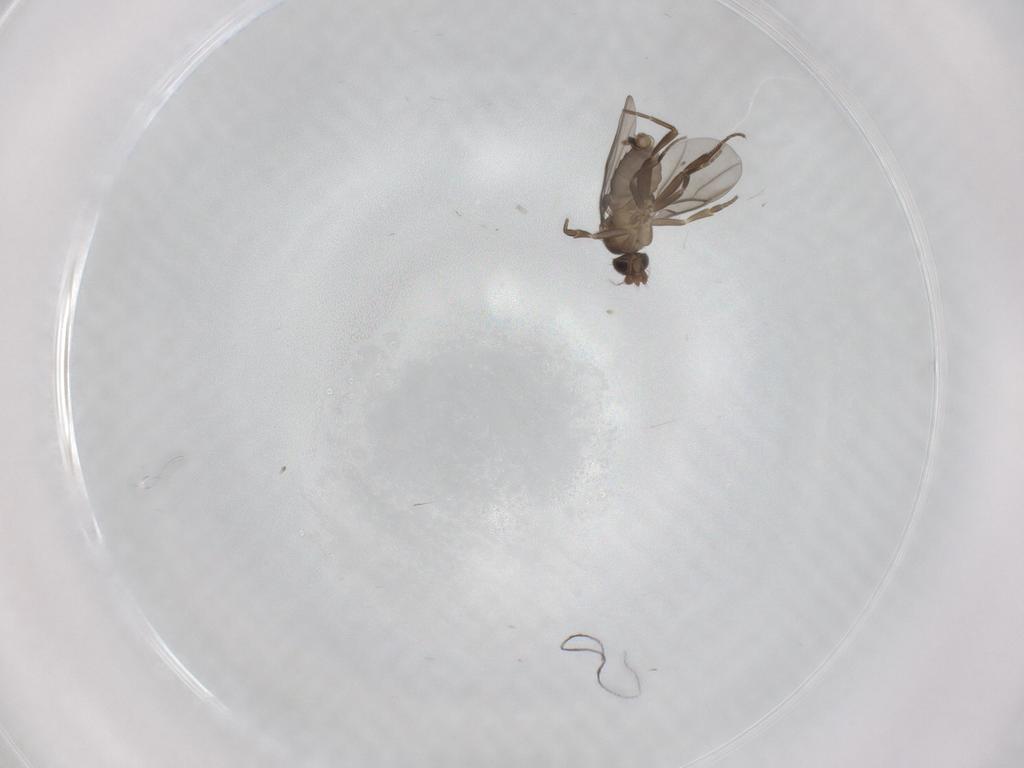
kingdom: Animalia
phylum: Arthropoda
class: Insecta
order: Diptera
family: Phoridae
